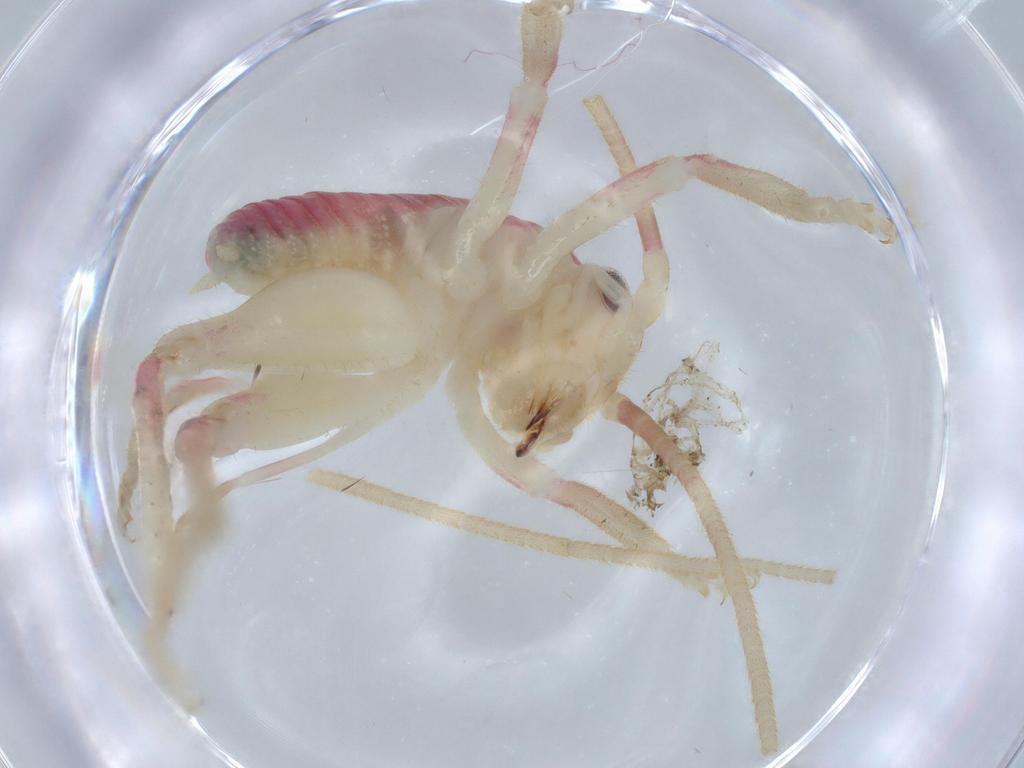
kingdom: Animalia
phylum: Arthropoda
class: Insecta
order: Orthoptera
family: Gryllacrididae
